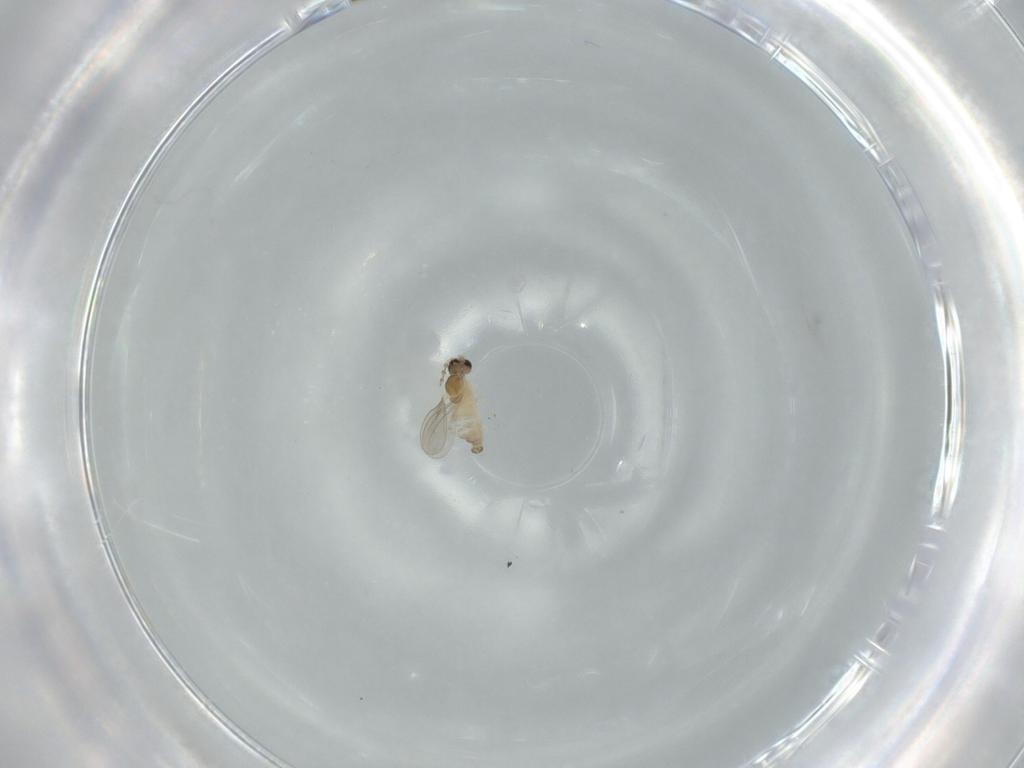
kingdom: Animalia
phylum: Arthropoda
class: Insecta
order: Diptera
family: Cecidomyiidae
